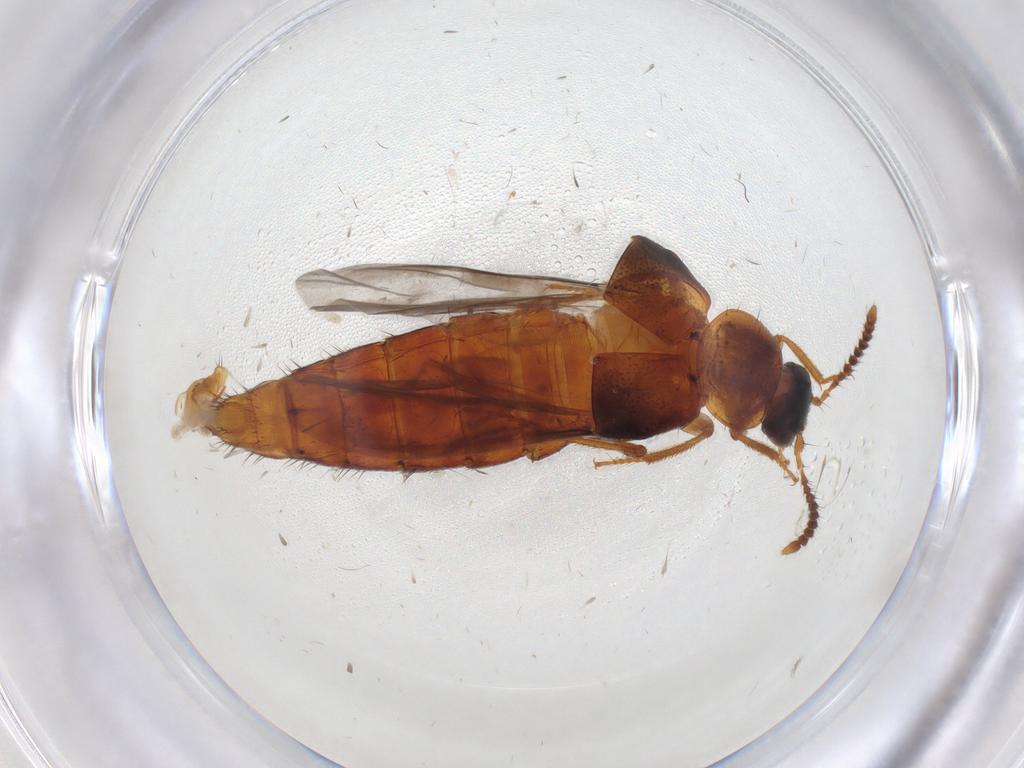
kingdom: Animalia
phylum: Arthropoda
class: Insecta
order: Coleoptera
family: Staphylinidae
